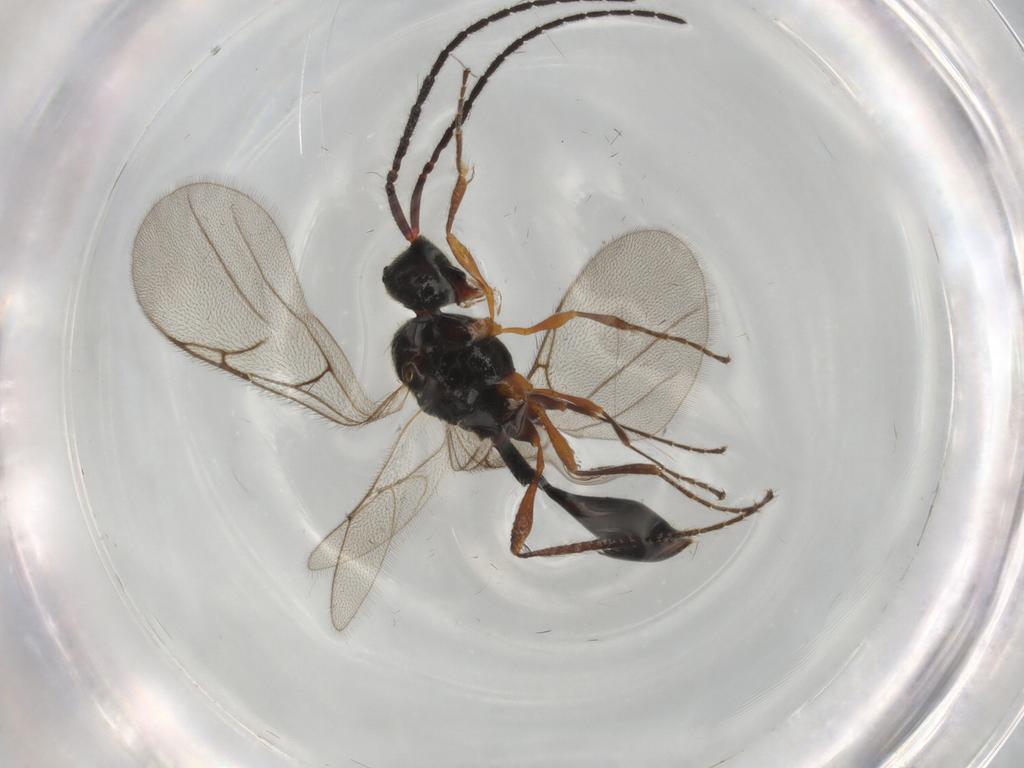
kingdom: Animalia
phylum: Arthropoda
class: Insecta
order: Hymenoptera
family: Diapriidae
